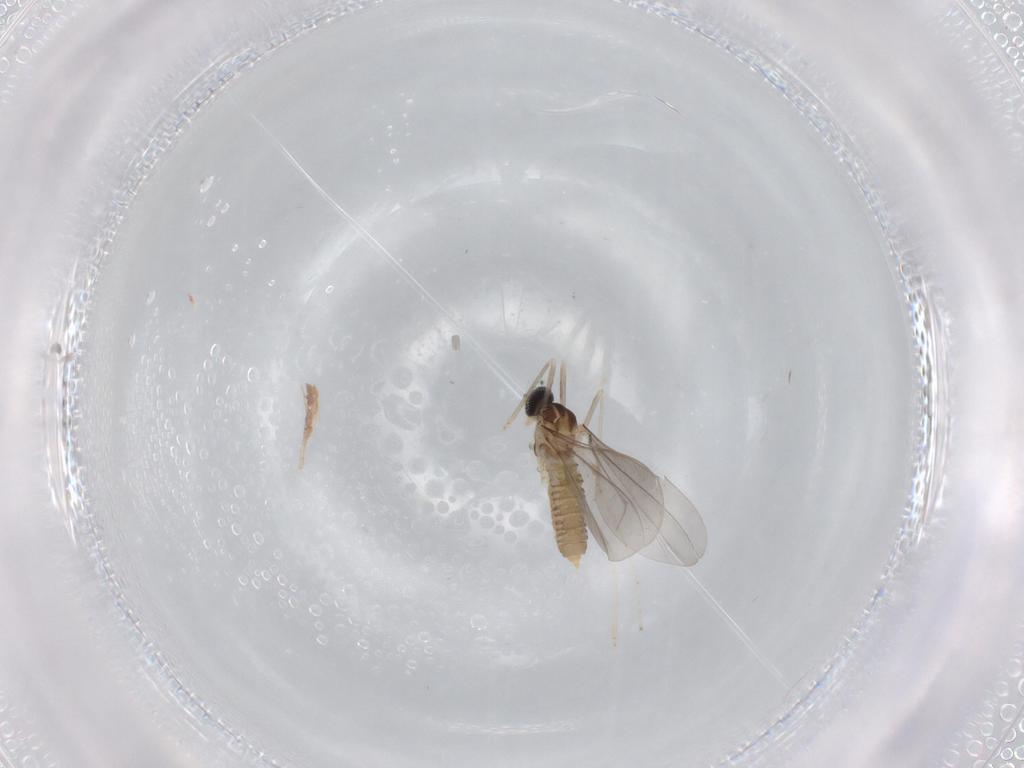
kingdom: Animalia
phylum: Arthropoda
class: Insecta
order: Diptera
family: Cecidomyiidae
